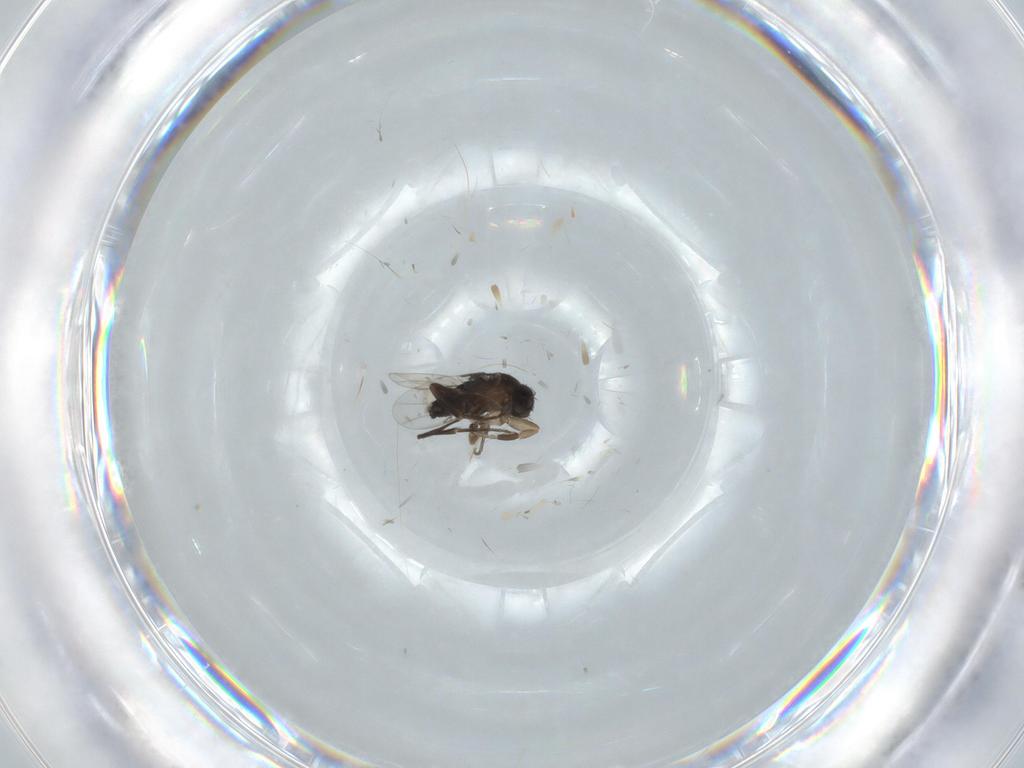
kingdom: Animalia
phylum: Arthropoda
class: Insecta
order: Diptera
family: Phoridae
